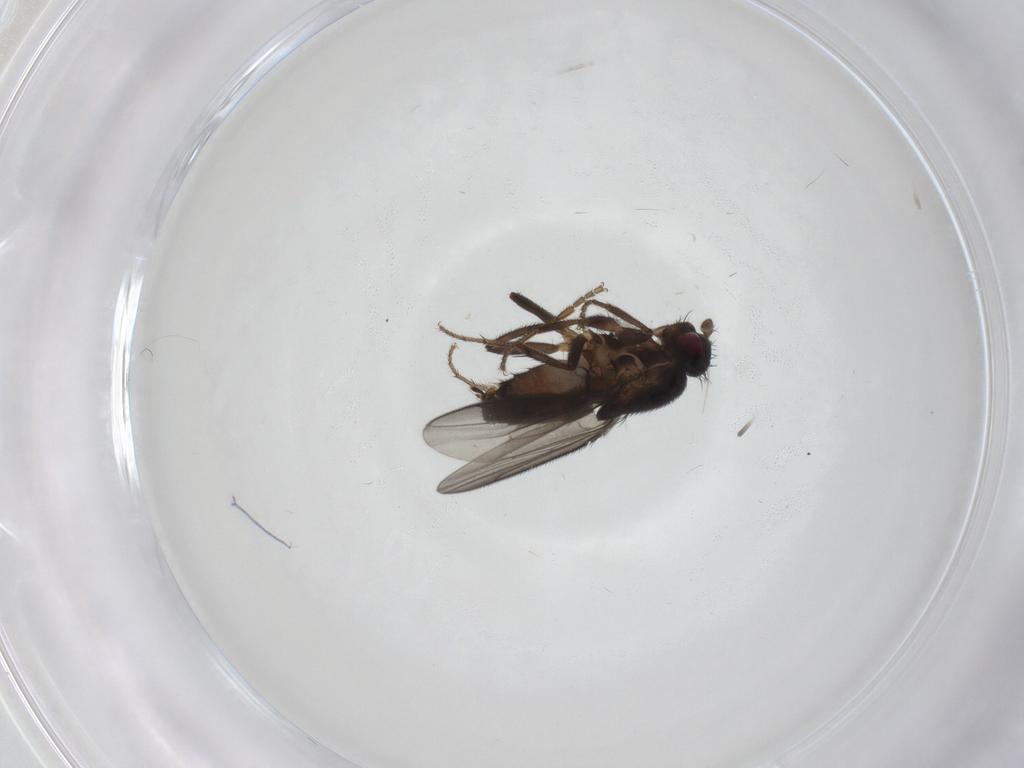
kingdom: Animalia
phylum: Arthropoda
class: Insecta
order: Diptera
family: Sphaeroceridae
